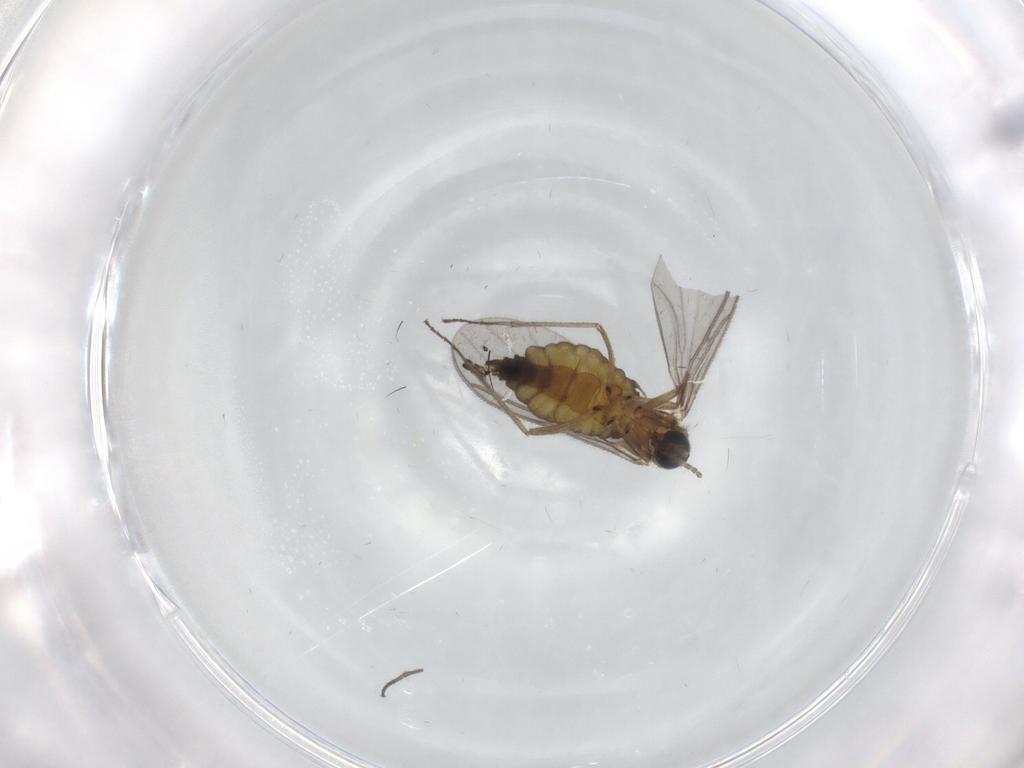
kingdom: Animalia
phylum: Arthropoda
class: Insecta
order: Diptera
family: Sciaridae
